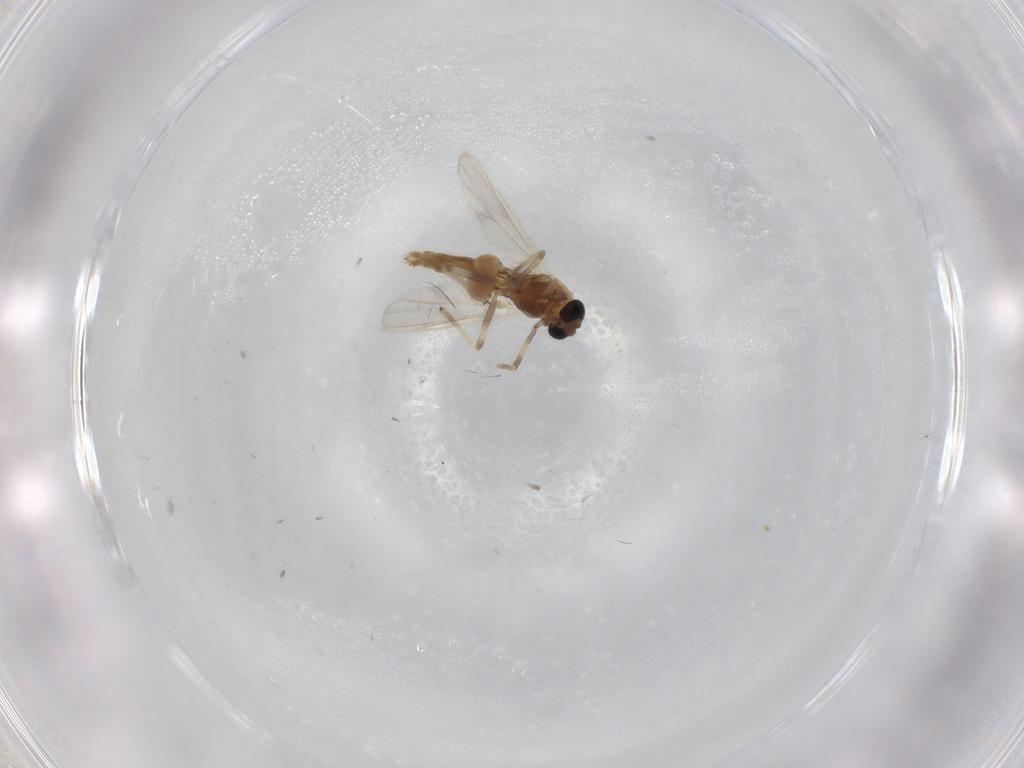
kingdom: Animalia
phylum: Arthropoda
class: Insecta
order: Diptera
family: Chironomidae
